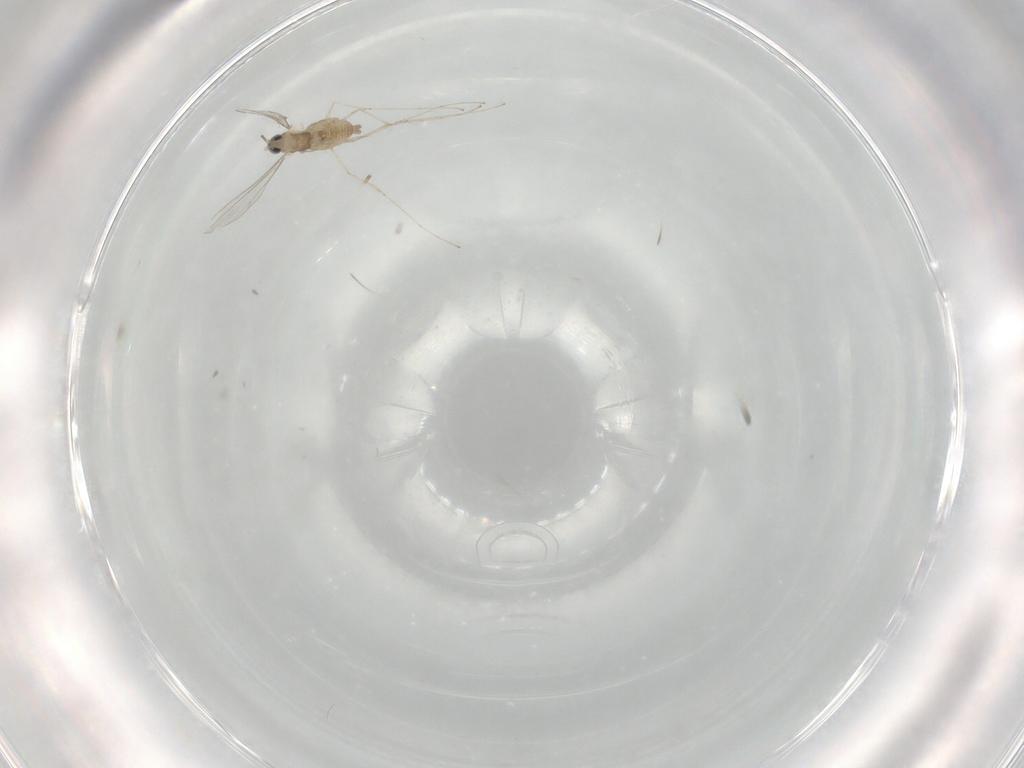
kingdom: Animalia
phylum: Arthropoda
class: Insecta
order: Diptera
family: Cecidomyiidae
